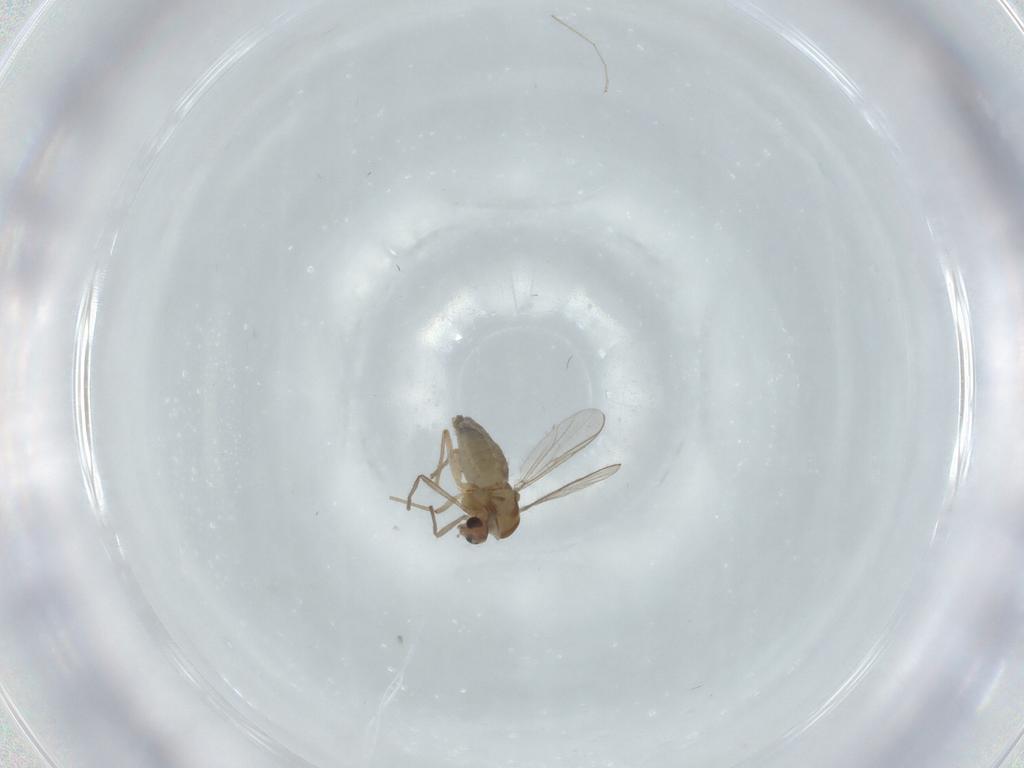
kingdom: Animalia
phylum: Arthropoda
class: Insecta
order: Diptera
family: Chironomidae
